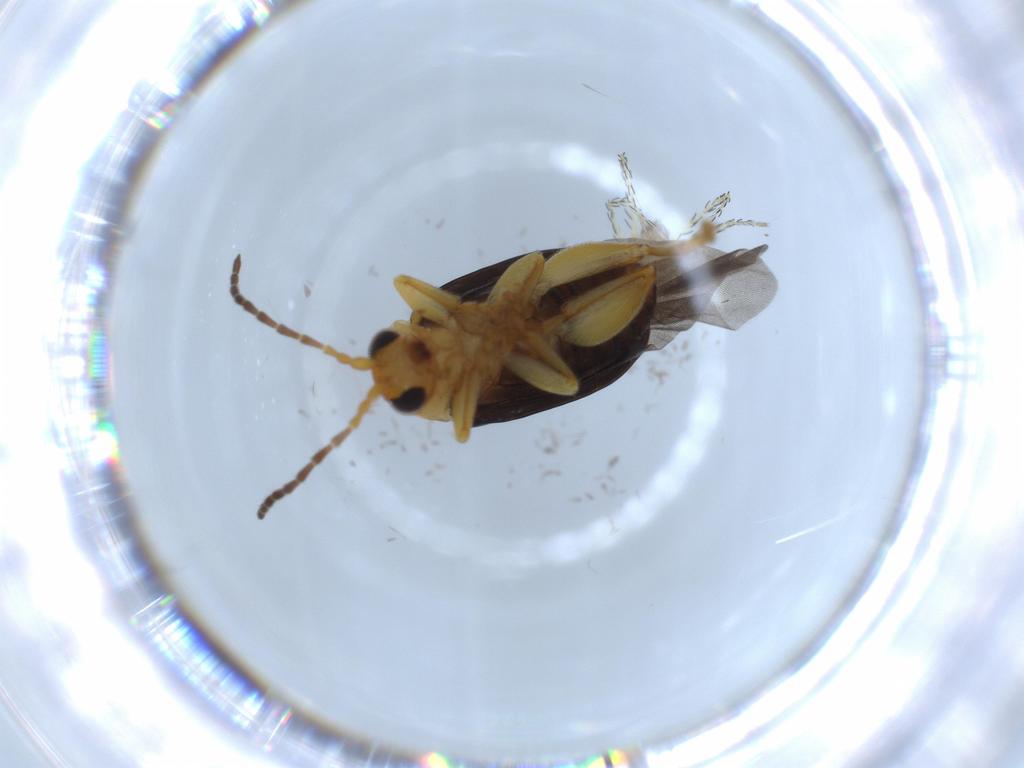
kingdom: Animalia
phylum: Arthropoda
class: Insecta
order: Coleoptera
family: Chrysomelidae
